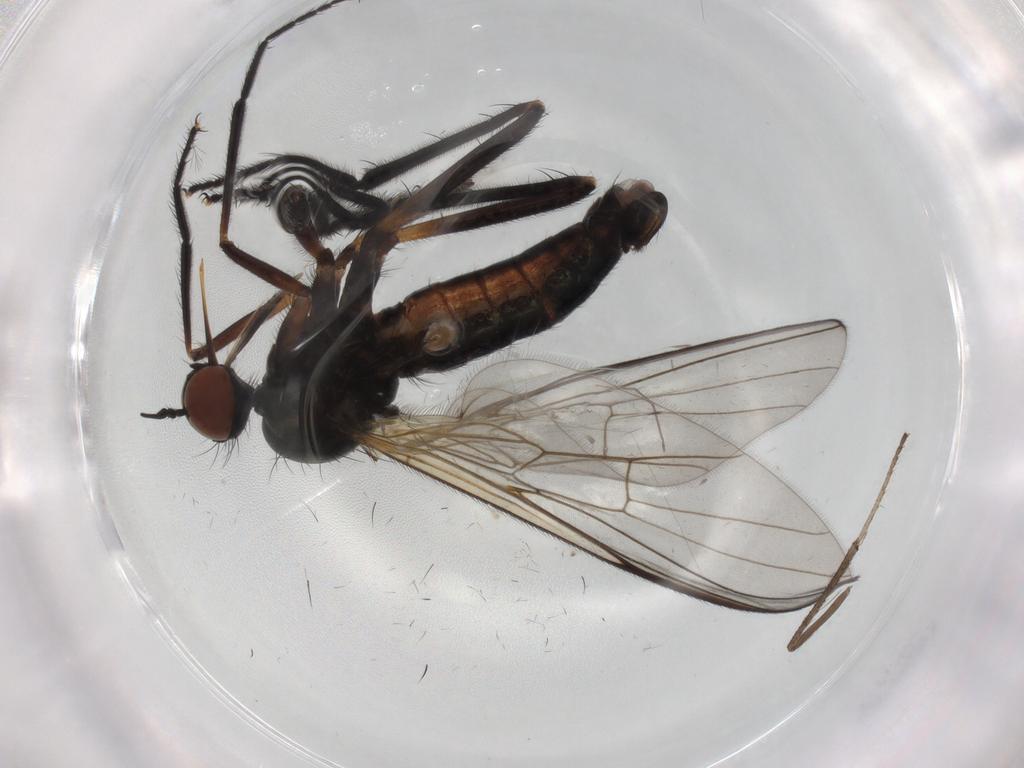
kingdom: Animalia
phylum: Arthropoda
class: Insecta
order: Diptera
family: Empididae
